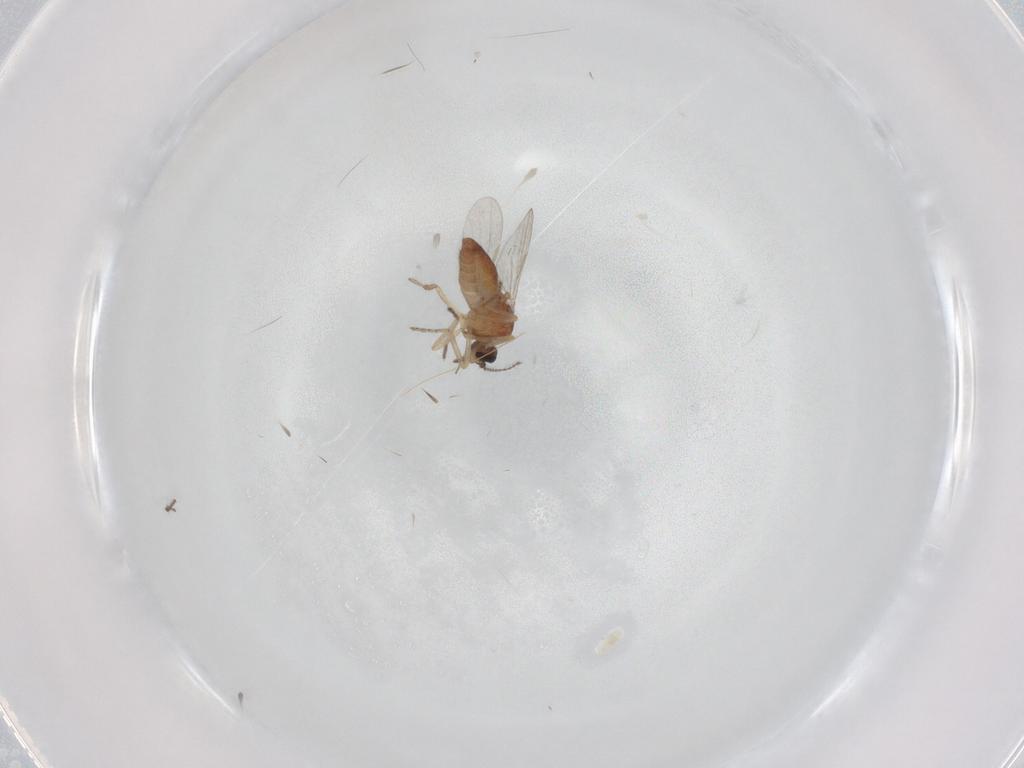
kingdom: Animalia
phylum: Arthropoda
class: Insecta
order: Diptera
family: Ceratopogonidae
